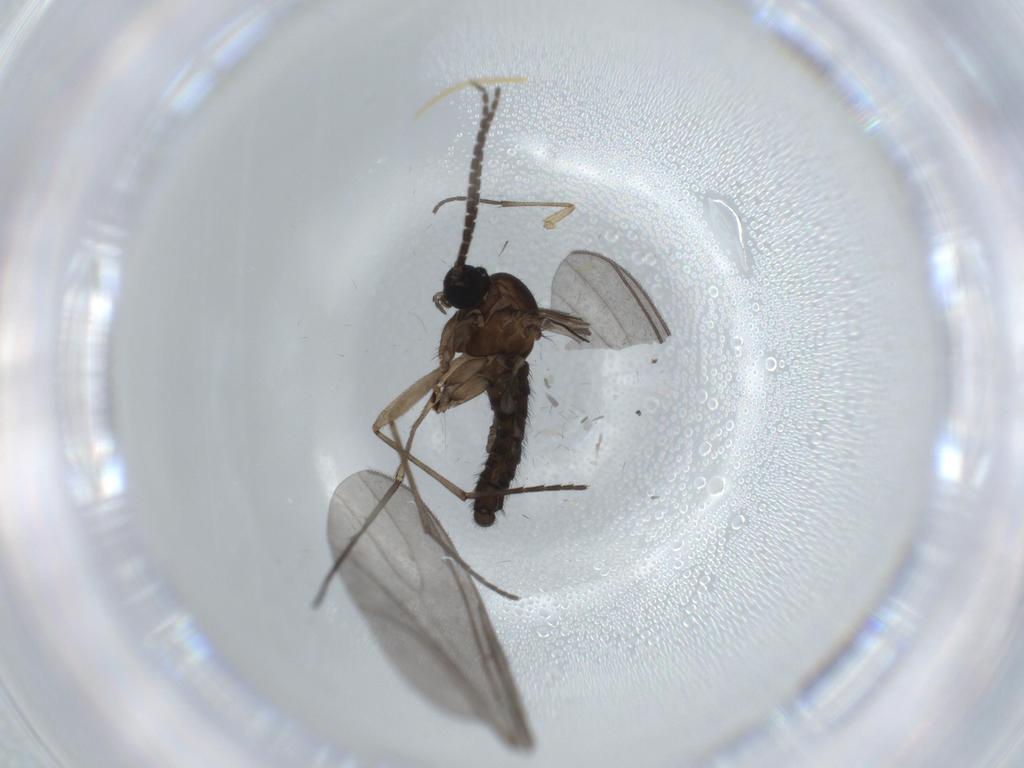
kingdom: Animalia
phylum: Arthropoda
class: Insecta
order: Diptera
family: Sciaridae
